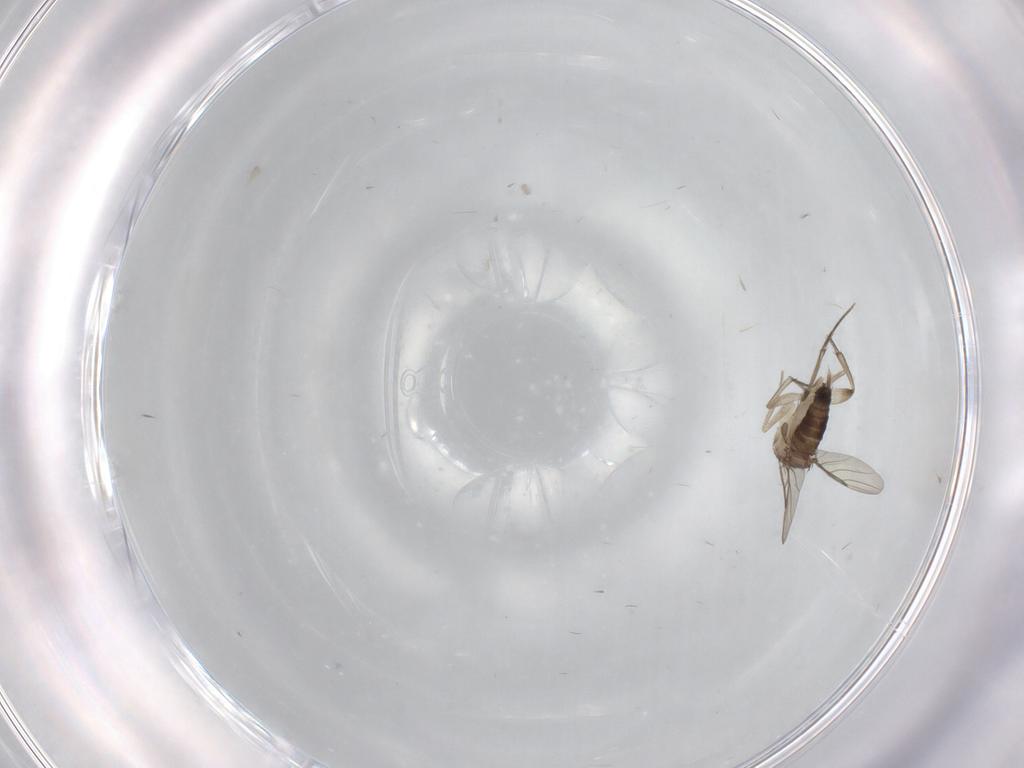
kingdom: Animalia
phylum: Arthropoda
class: Insecta
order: Diptera
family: Phoridae
